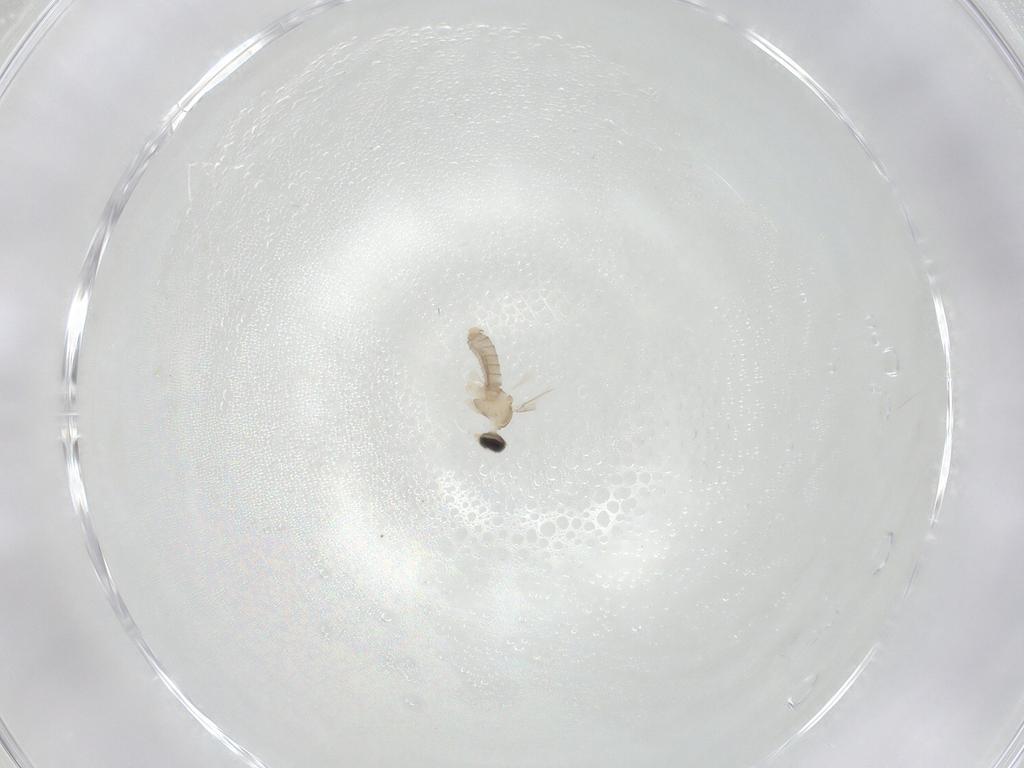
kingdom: Animalia
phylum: Arthropoda
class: Insecta
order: Diptera
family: Cecidomyiidae
